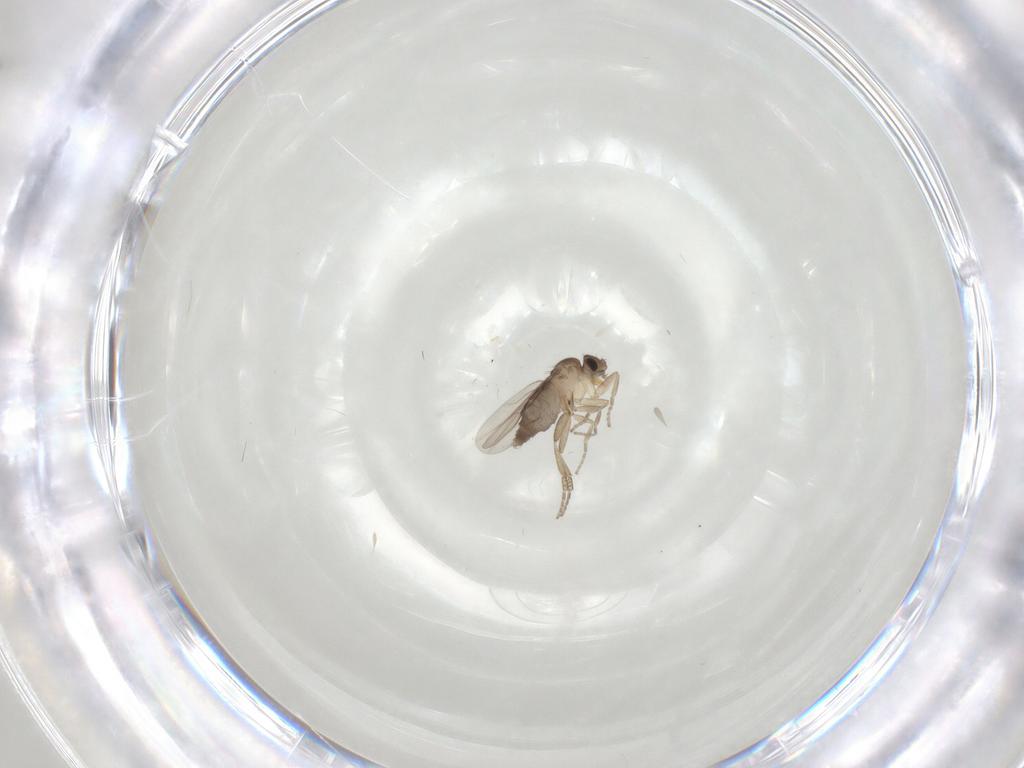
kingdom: Animalia
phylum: Arthropoda
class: Insecta
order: Diptera
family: Phoridae
